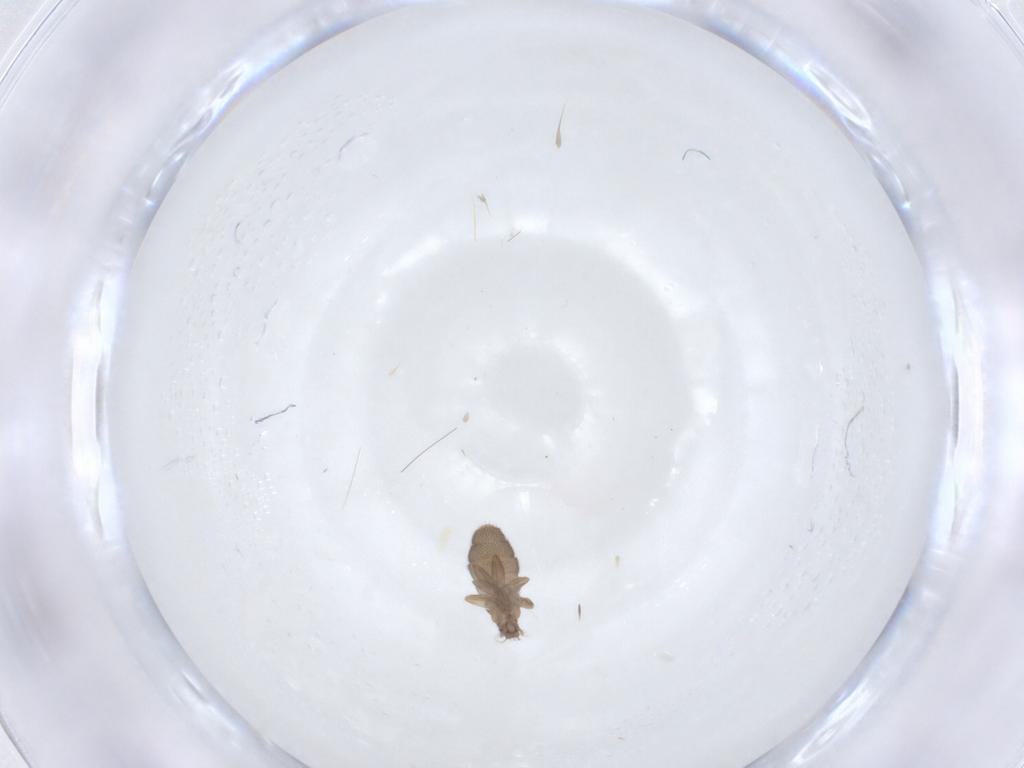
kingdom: Animalia
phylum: Arthropoda
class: Insecta
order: Diptera
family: Phoridae
